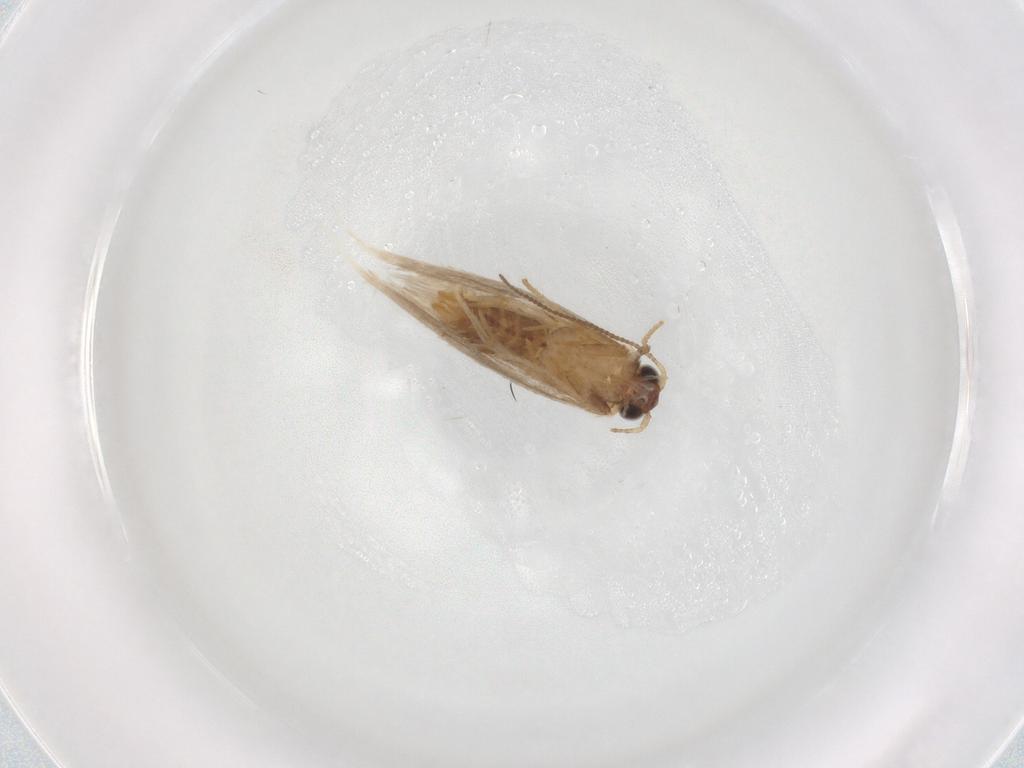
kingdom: Animalia
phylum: Arthropoda
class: Insecta
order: Lepidoptera
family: Nepticulidae
